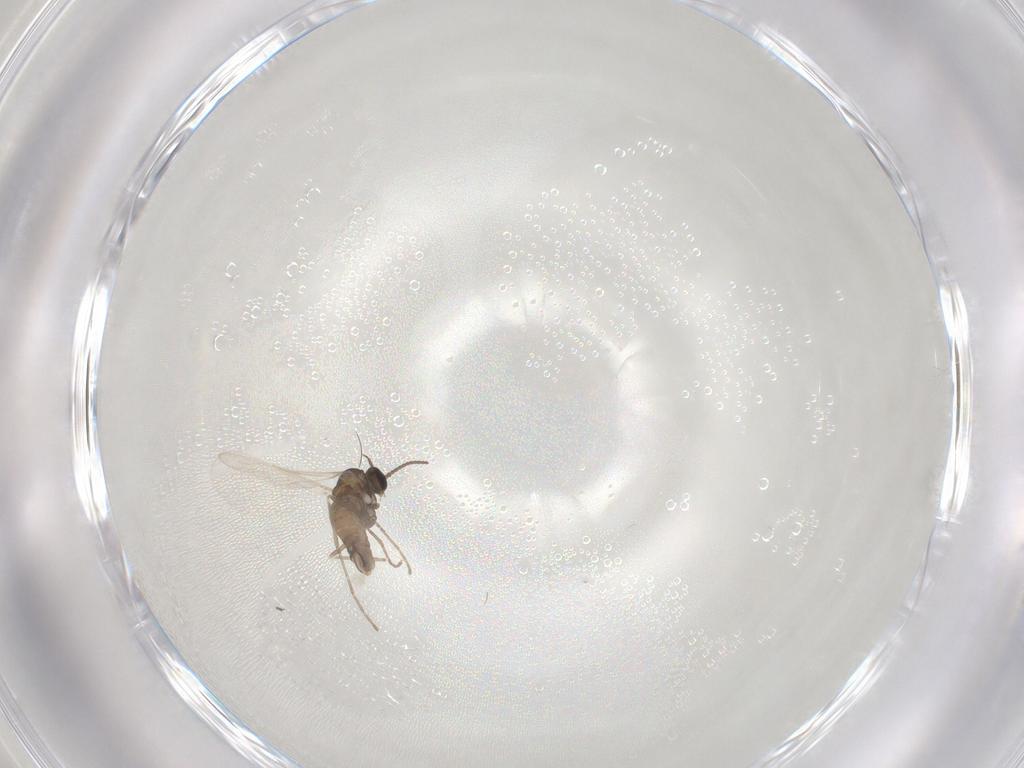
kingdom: Animalia
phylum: Arthropoda
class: Insecta
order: Diptera
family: Cecidomyiidae
